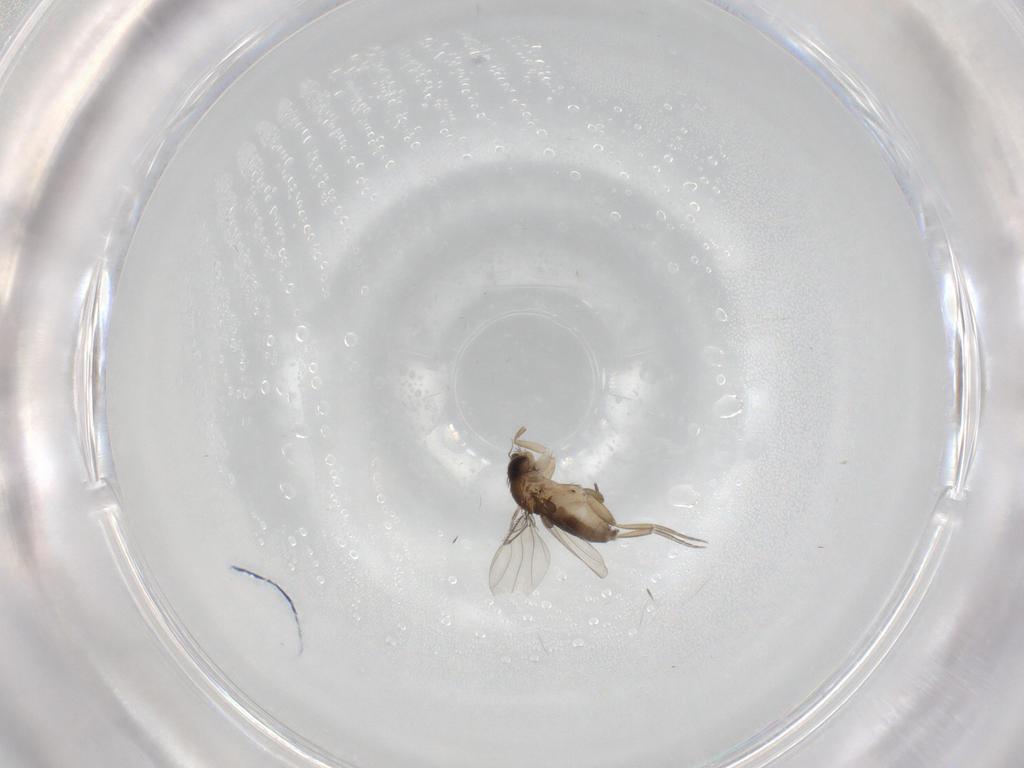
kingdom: Animalia
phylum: Arthropoda
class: Insecta
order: Diptera
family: Phoridae
